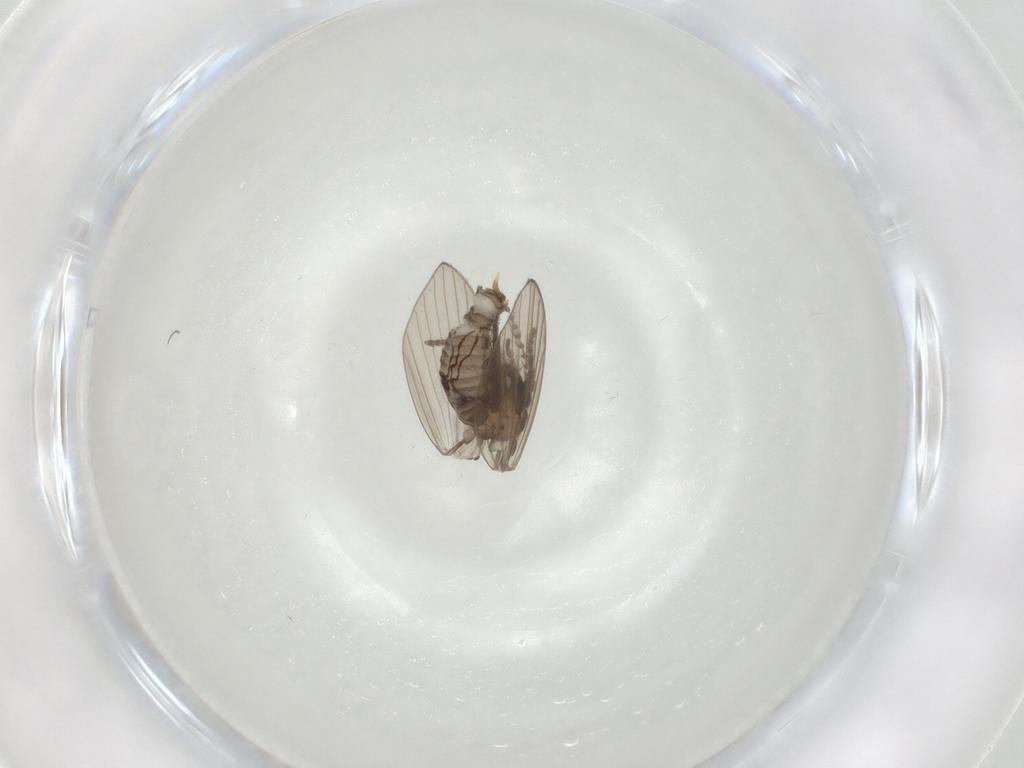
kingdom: Animalia
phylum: Arthropoda
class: Insecta
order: Diptera
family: Psychodidae
